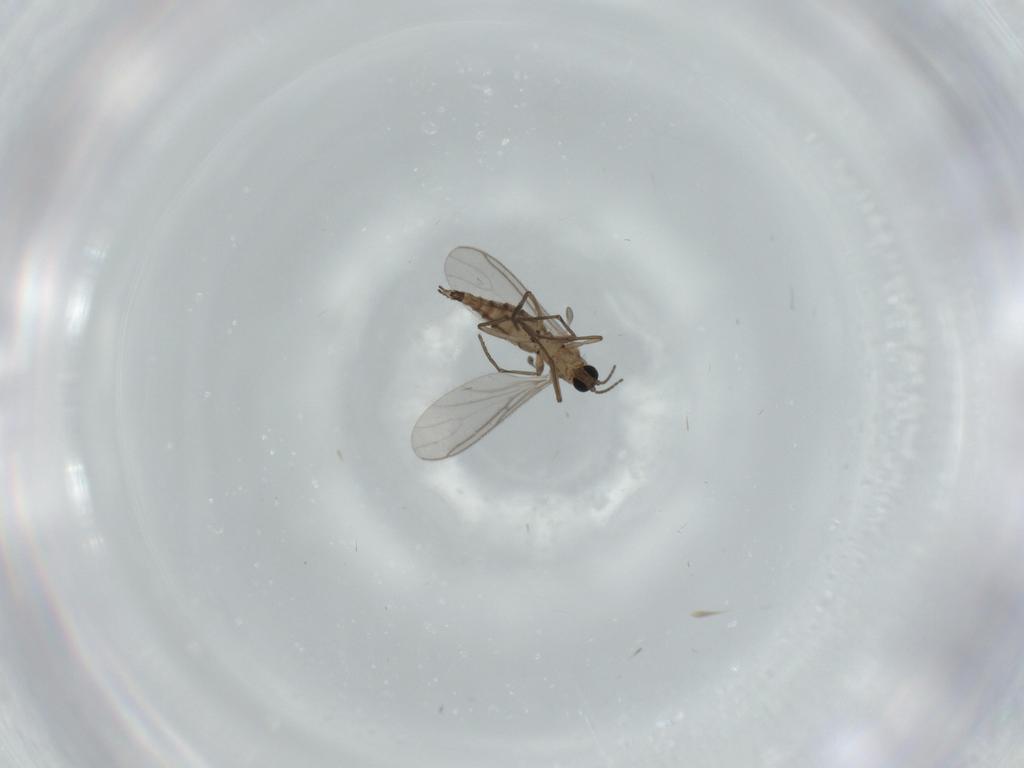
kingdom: Animalia
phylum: Arthropoda
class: Insecta
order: Diptera
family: Sciaridae
